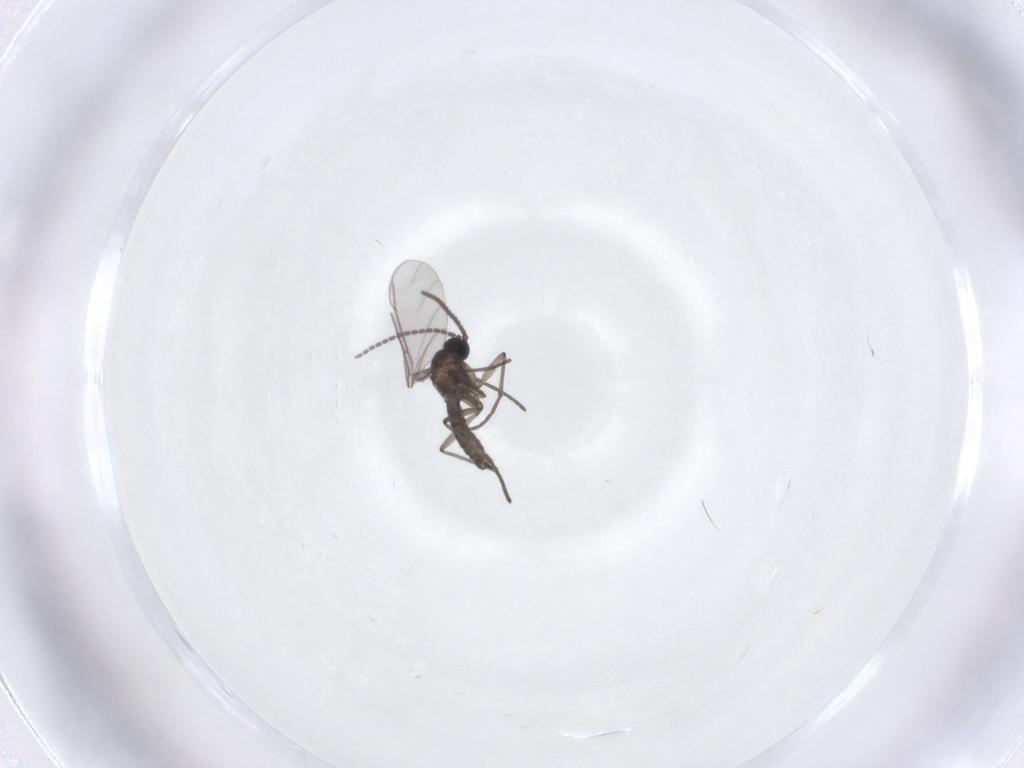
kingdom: Animalia
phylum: Arthropoda
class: Insecta
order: Diptera
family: Sciaridae
